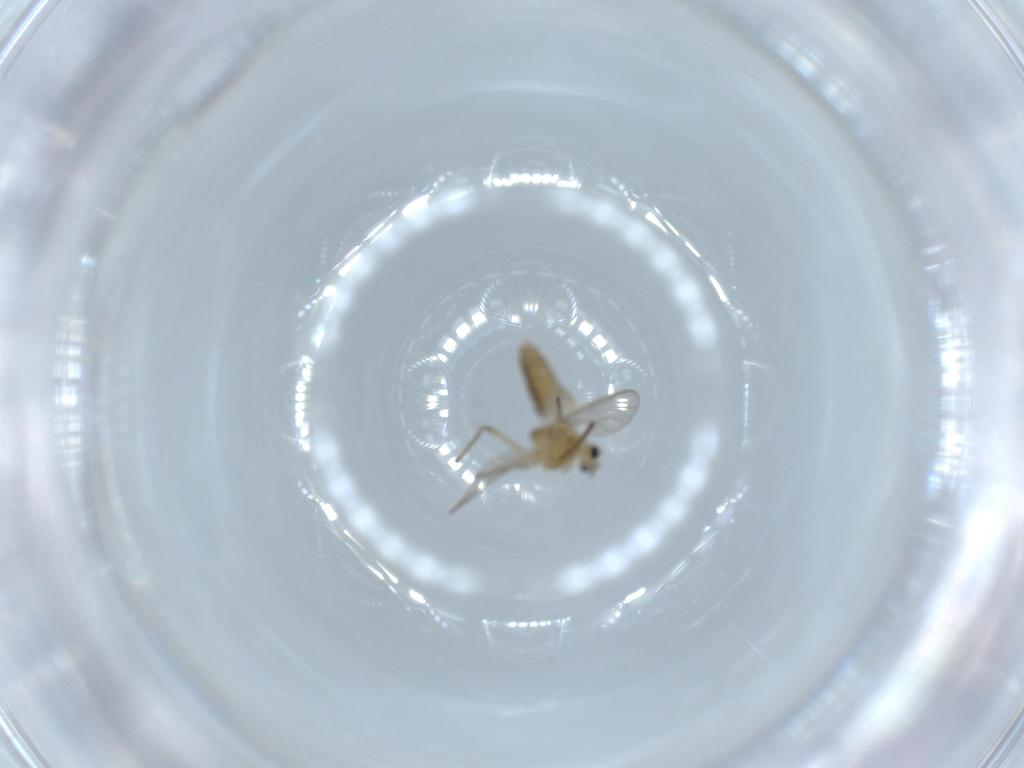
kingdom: Animalia
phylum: Arthropoda
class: Insecta
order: Diptera
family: Chironomidae
